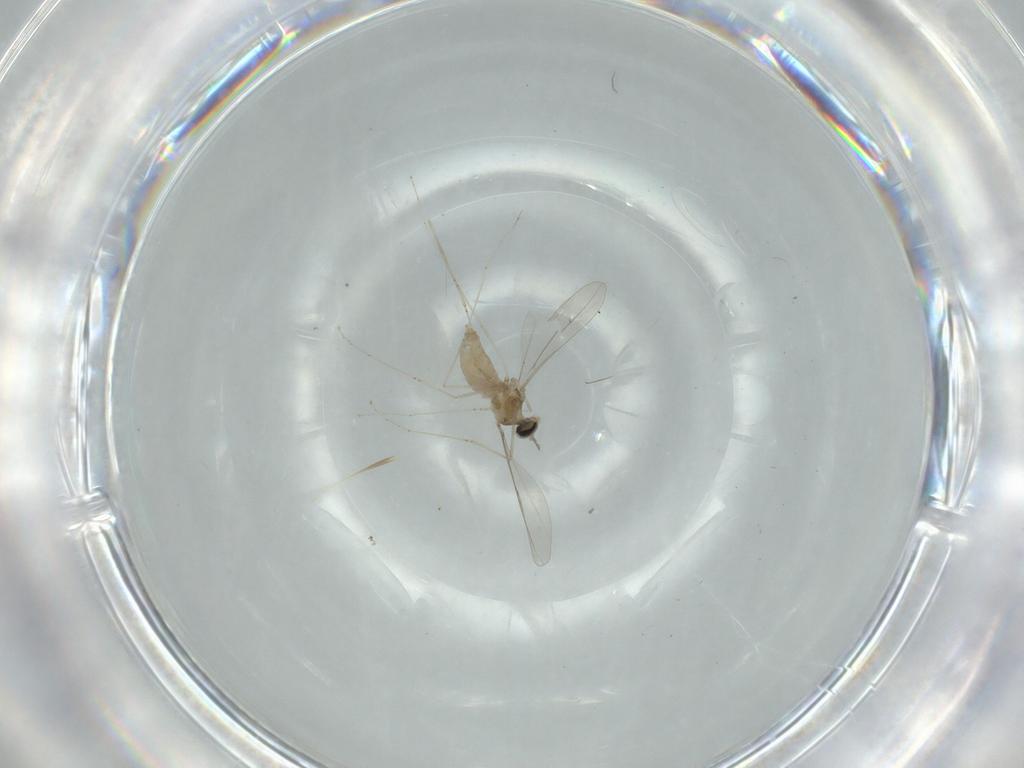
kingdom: Animalia
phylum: Arthropoda
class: Insecta
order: Diptera
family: Cecidomyiidae
